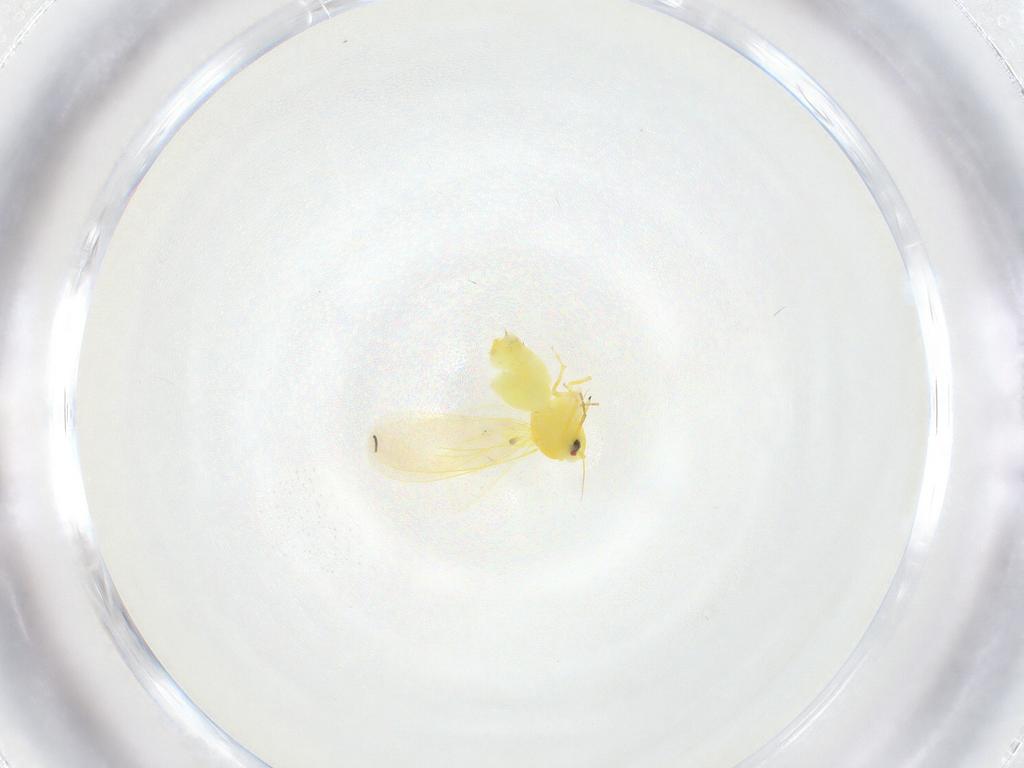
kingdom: Animalia
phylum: Arthropoda
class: Insecta
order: Hemiptera
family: Aleyrodidae
